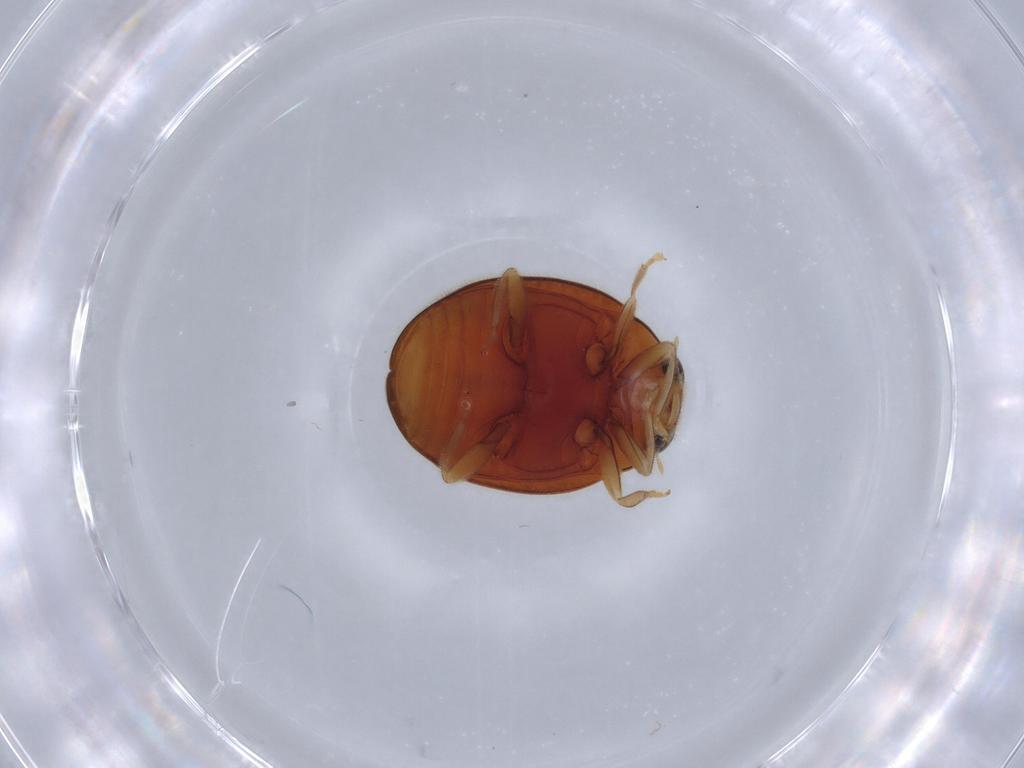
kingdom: Animalia
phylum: Arthropoda
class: Insecta
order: Coleoptera
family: Coccinellidae
